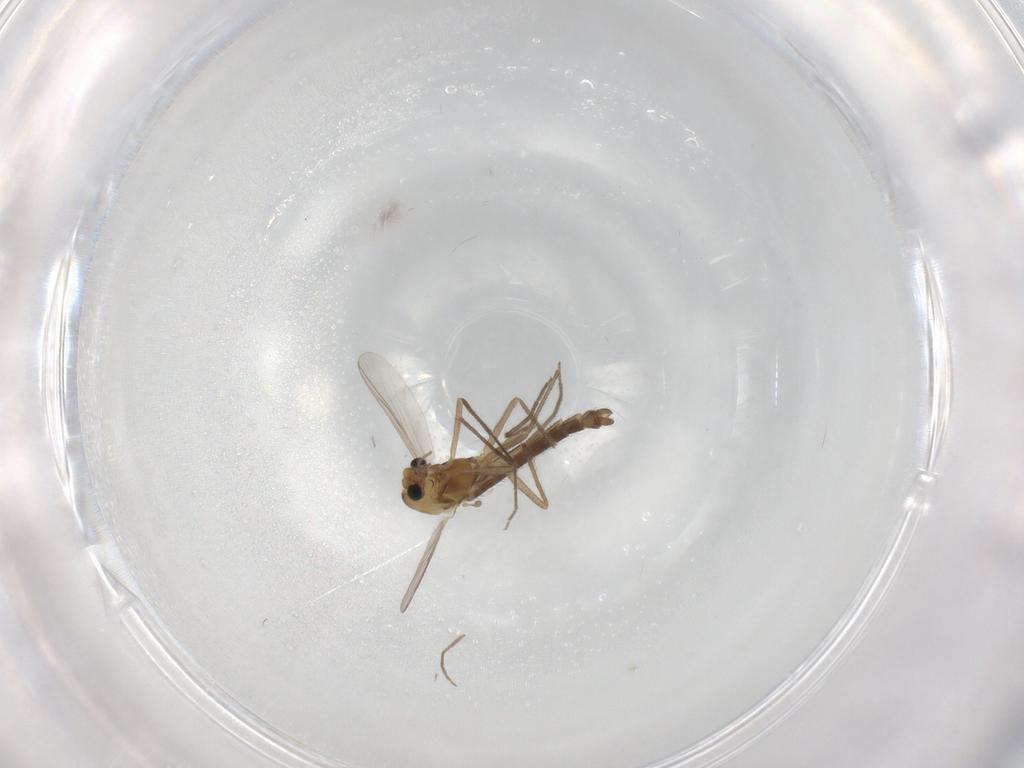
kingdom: Animalia
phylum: Arthropoda
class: Insecta
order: Diptera
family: Chironomidae
